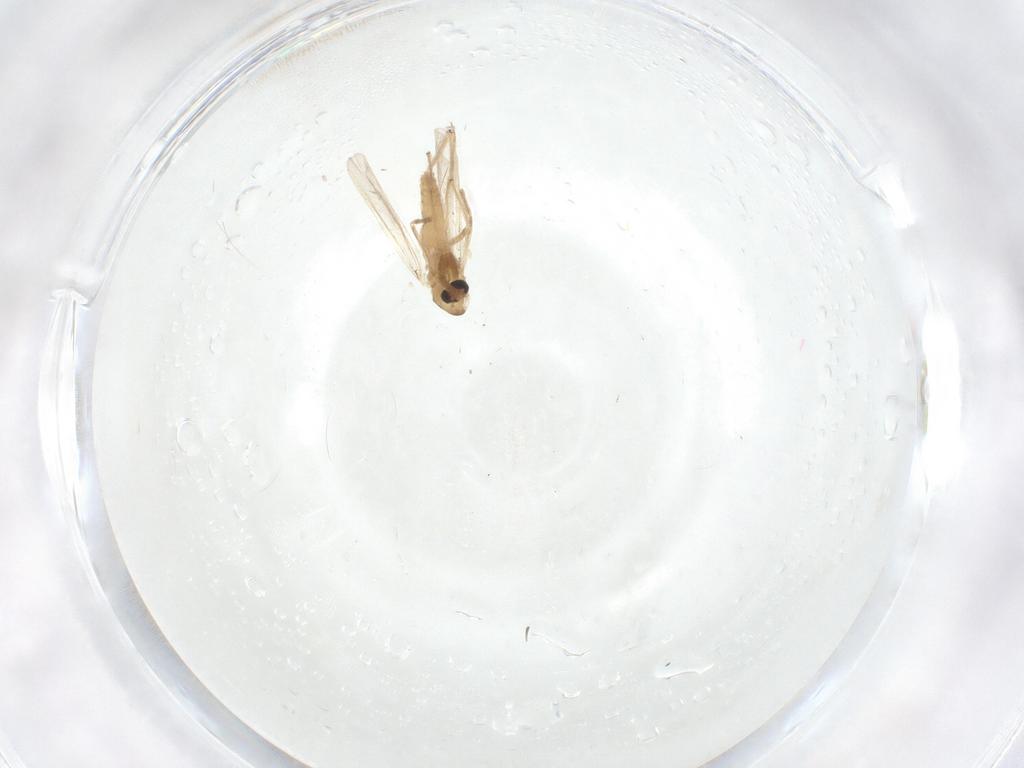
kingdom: Animalia
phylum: Arthropoda
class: Insecta
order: Diptera
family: Chironomidae
